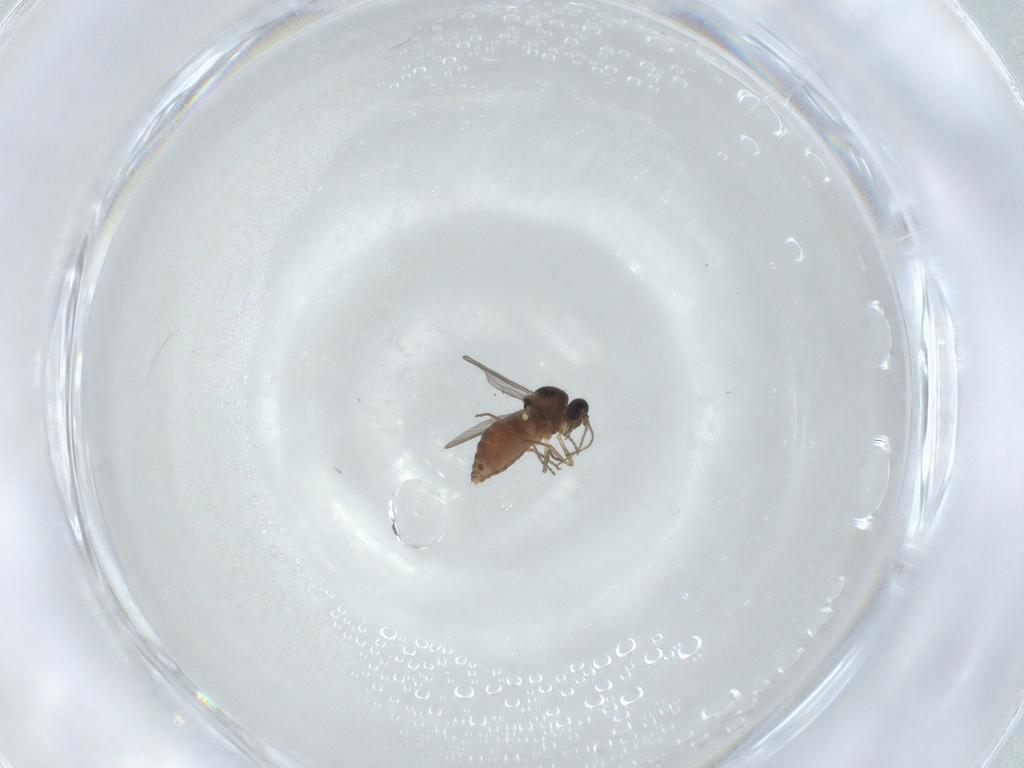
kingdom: Animalia
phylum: Arthropoda
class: Insecta
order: Diptera
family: Ceratopogonidae
